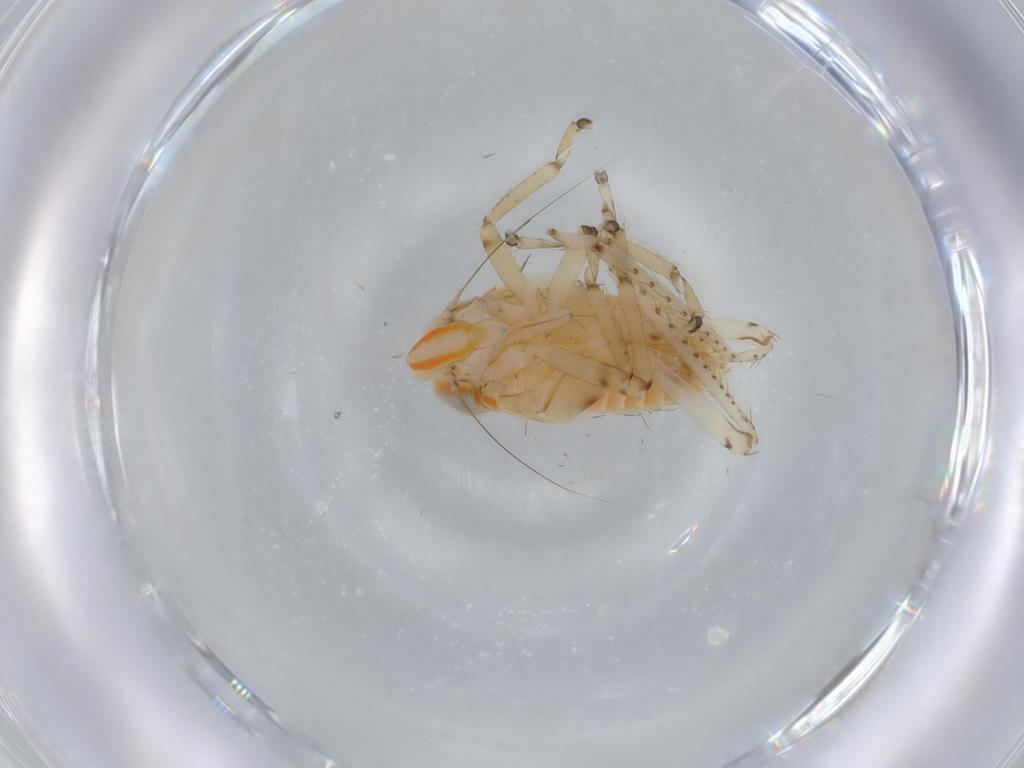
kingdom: Animalia
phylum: Arthropoda
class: Insecta
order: Hemiptera
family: Cicadellidae
